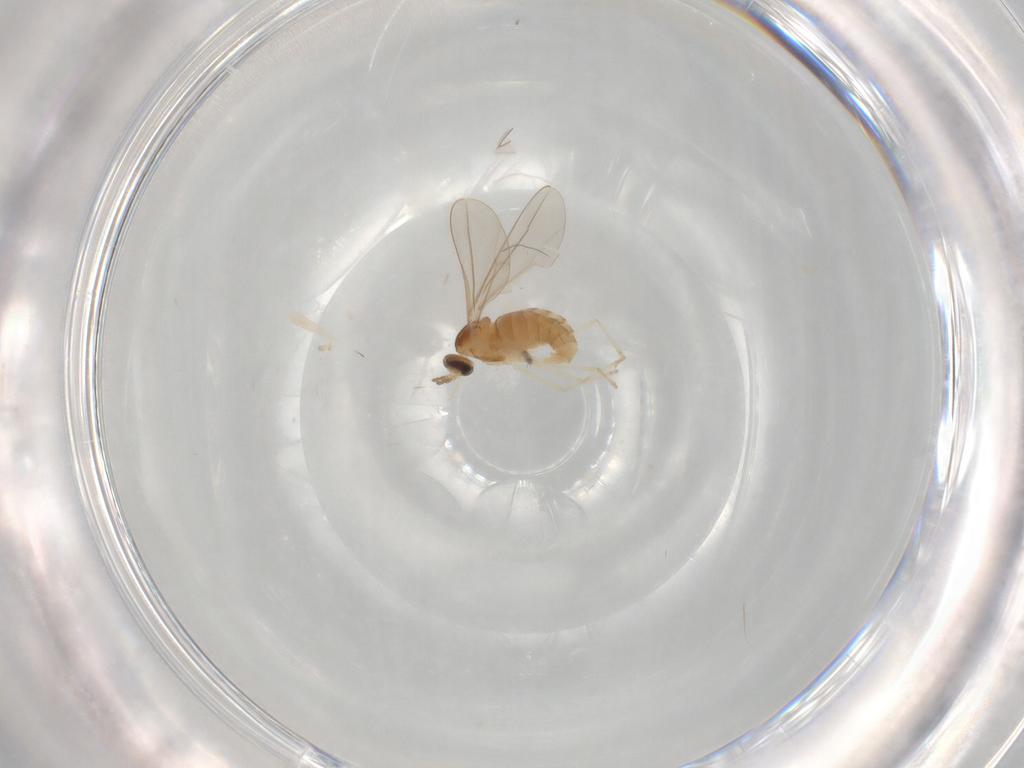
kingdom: Animalia
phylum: Arthropoda
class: Insecta
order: Diptera
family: Cecidomyiidae
